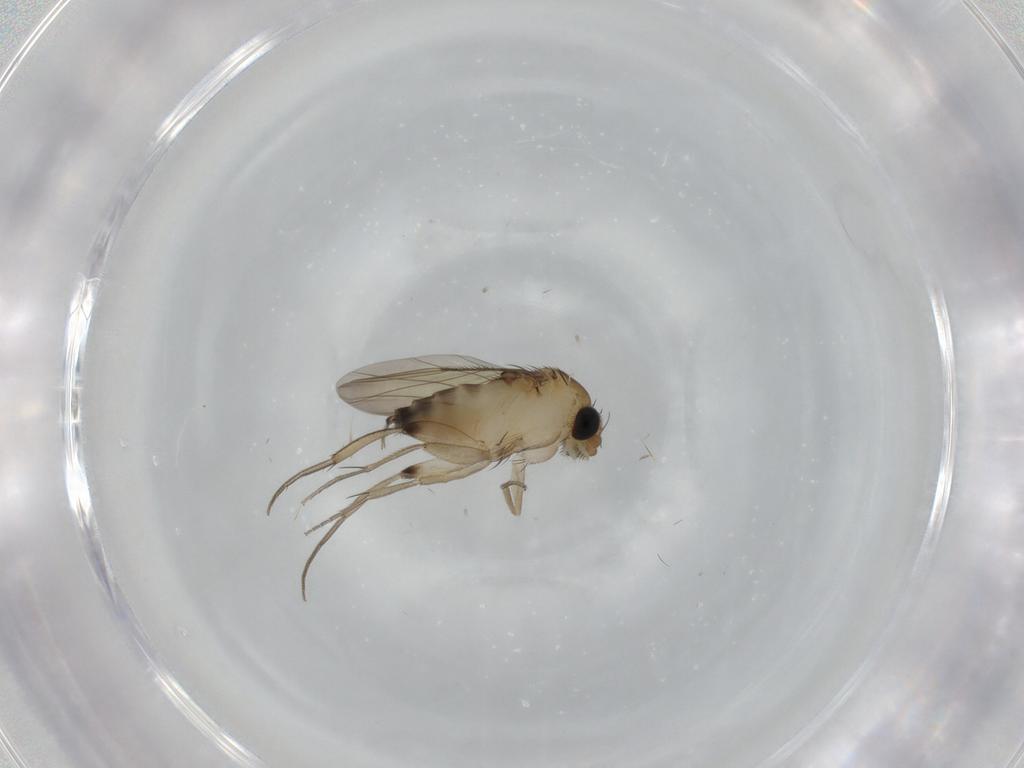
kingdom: Animalia
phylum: Arthropoda
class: Insecta
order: Diptera
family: Phoridae
